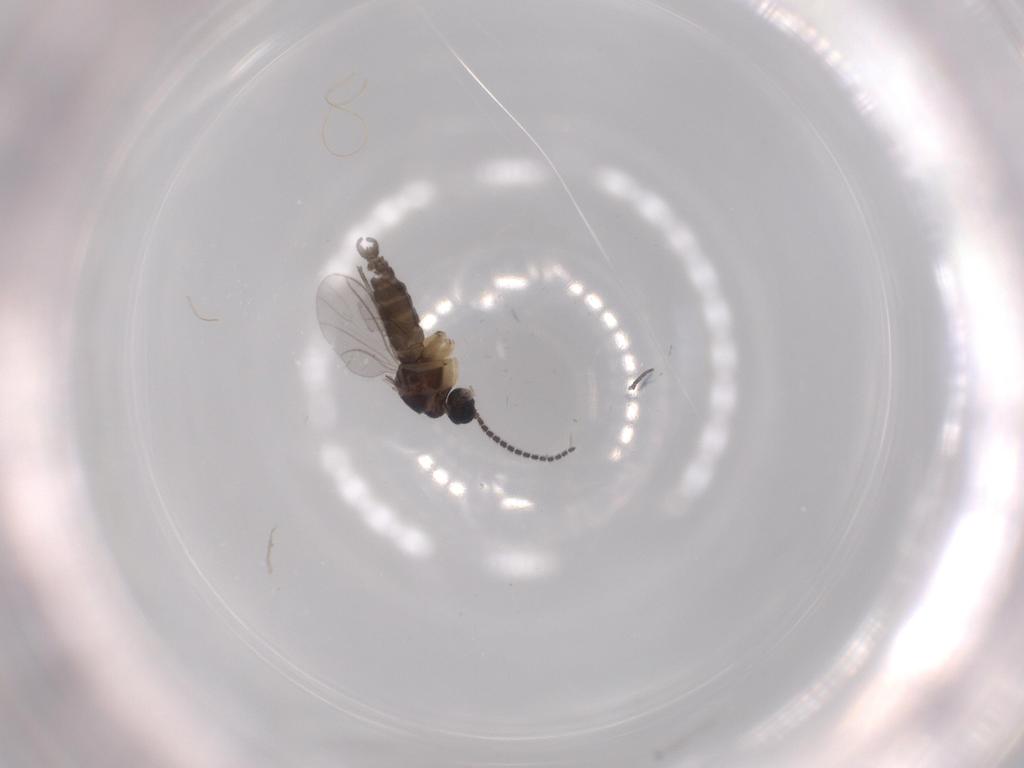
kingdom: Animalia
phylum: Arthropoda
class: Insecta
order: Diptera
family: Sciaridae
